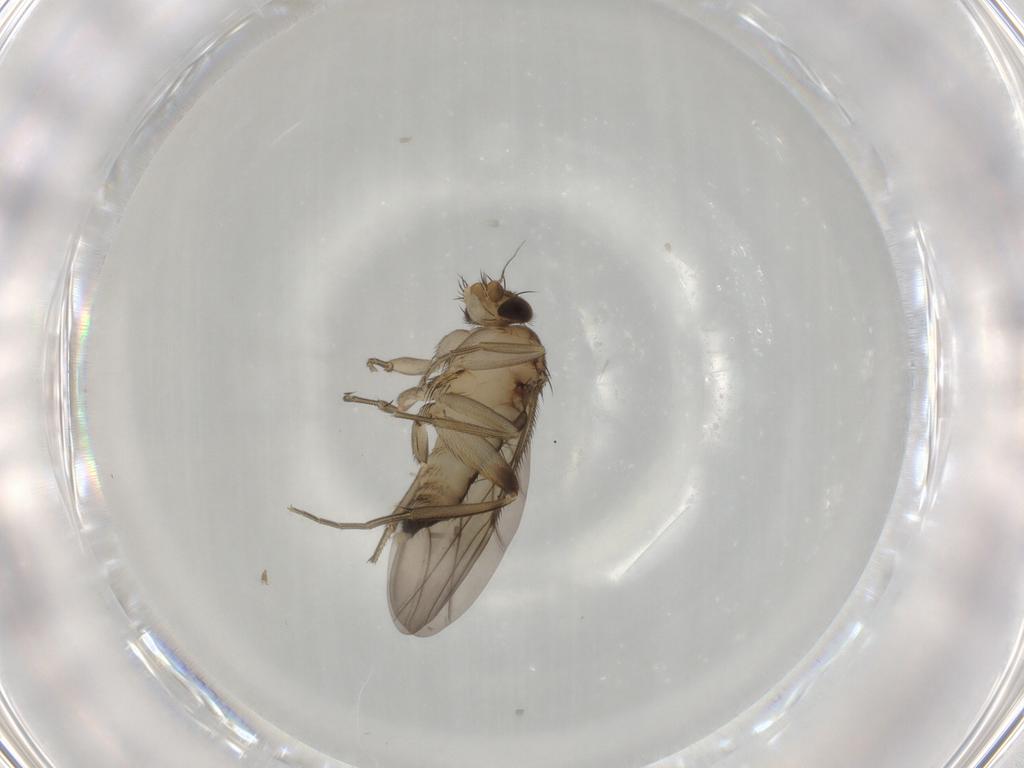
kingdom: Animalia
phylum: Arthropoda
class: Insecta
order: Diptera
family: Phoridae
